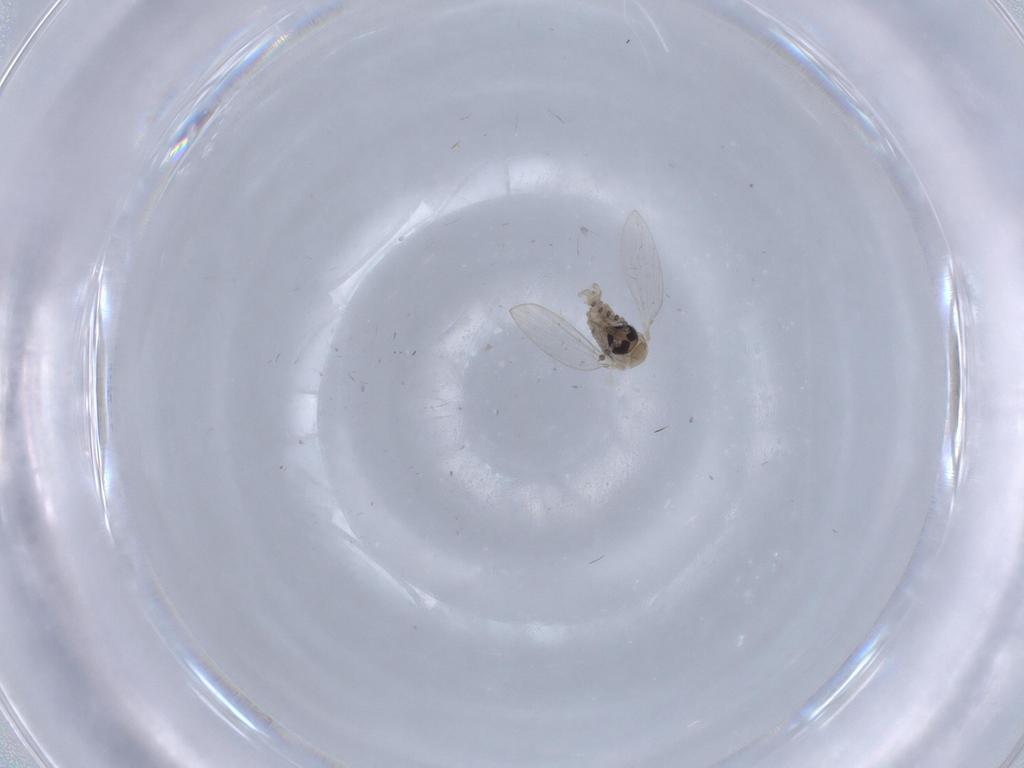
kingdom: Animalia
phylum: Arthropoda
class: Insecta
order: Diptera
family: Psychodidae
